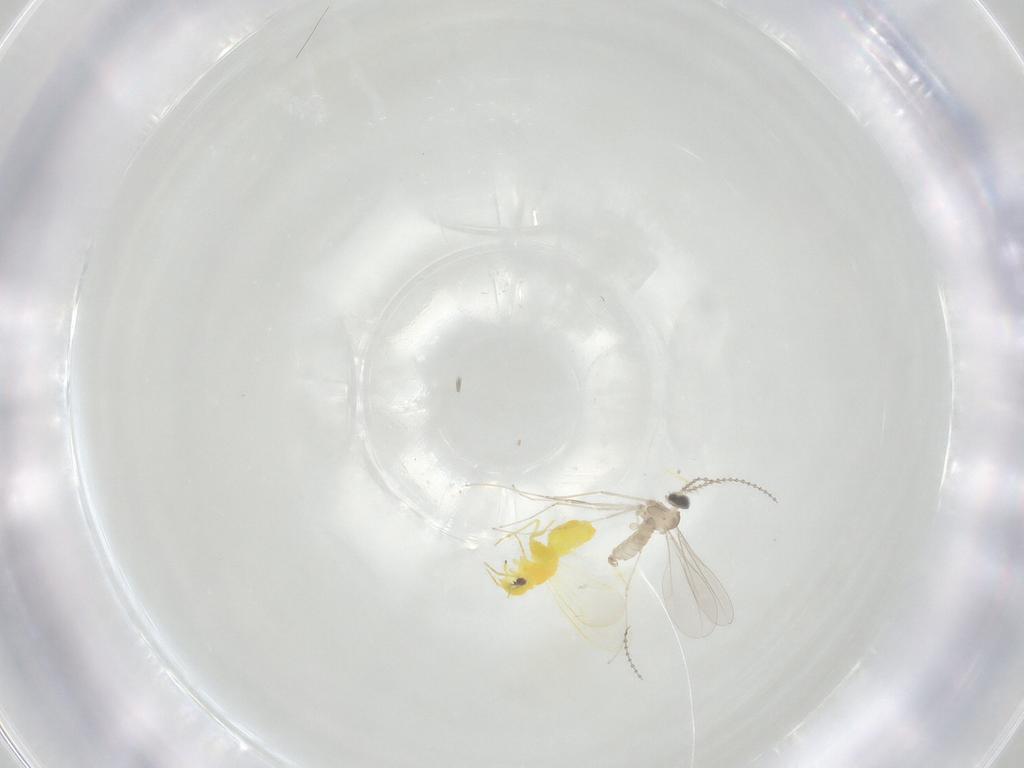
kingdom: Animalia
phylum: Arthropoda
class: Insecta
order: Hemiptera
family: Aleyrodidae
